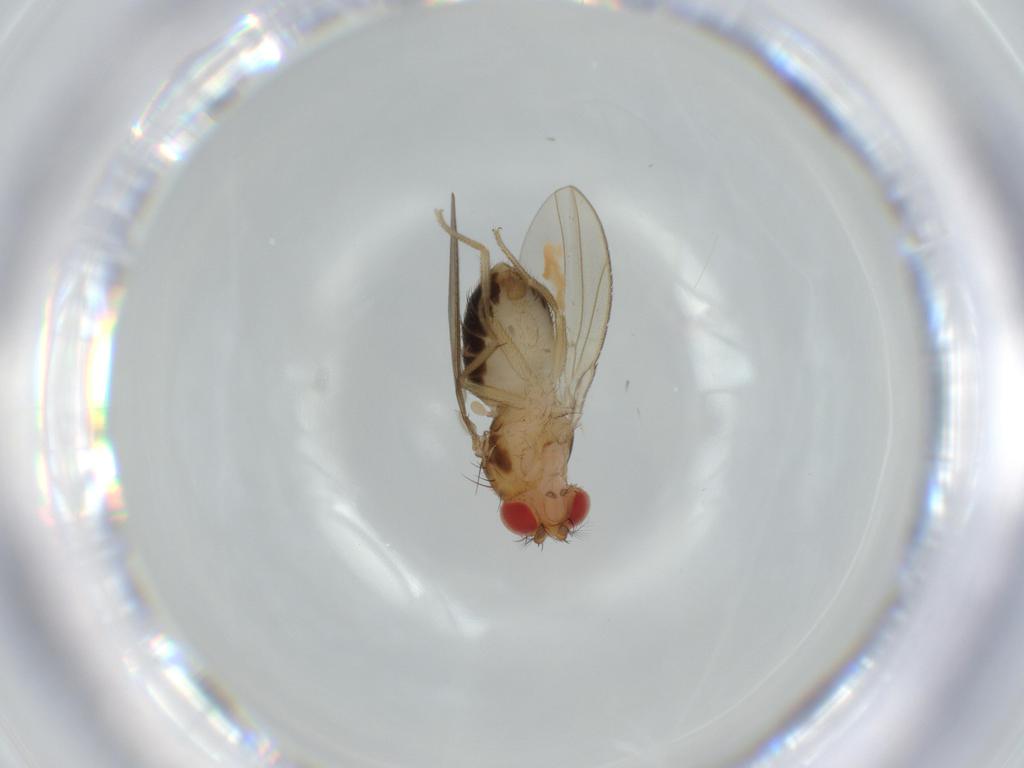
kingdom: Animalia
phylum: Arthropoda
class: Insecta
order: Diptera
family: Drosophilidae
